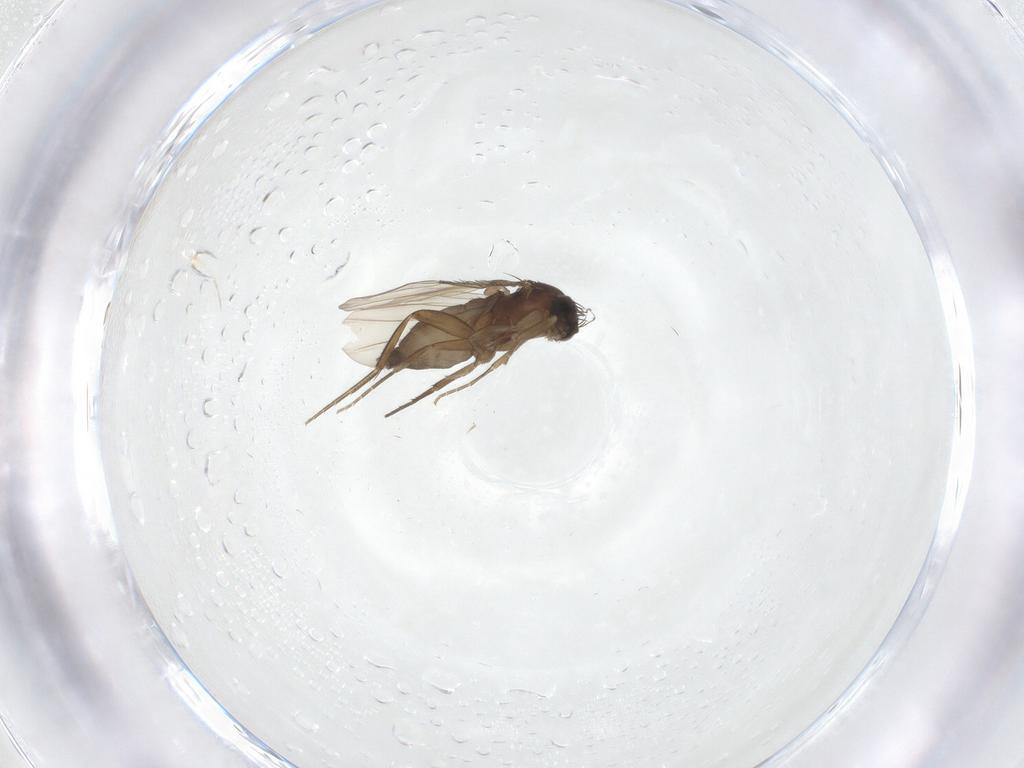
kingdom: Animalia
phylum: Arthropoda
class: Insecta
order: Diptera
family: Phoridae
